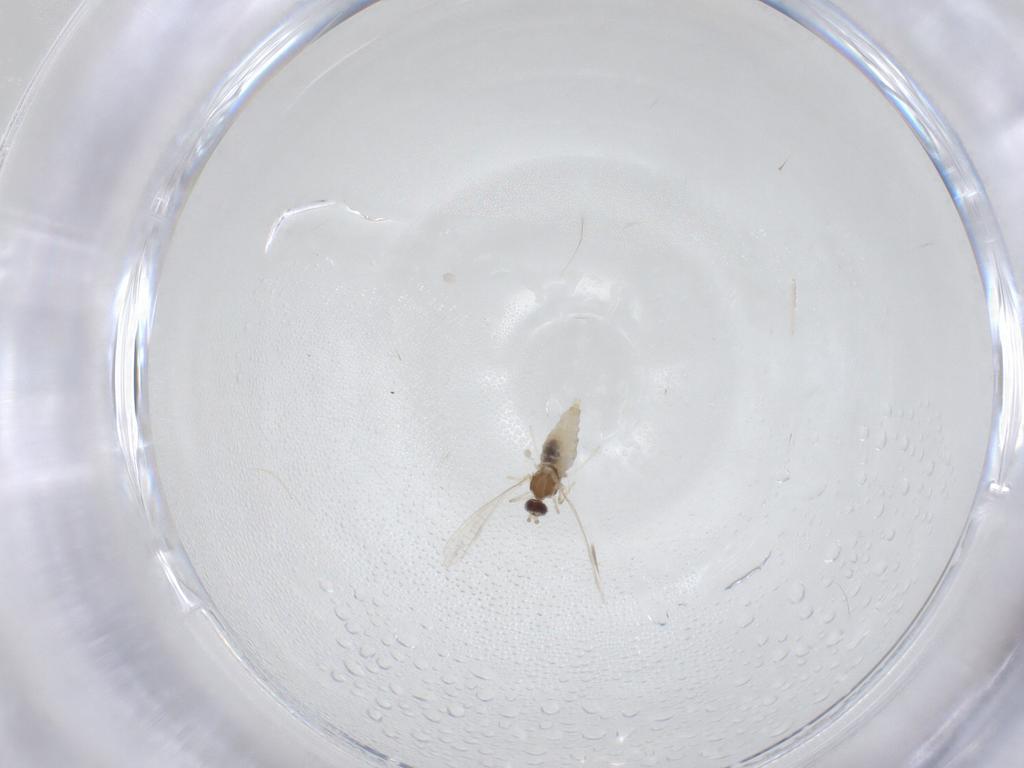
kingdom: Animalia
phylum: Arthropoda
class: Insecta
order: Diptera
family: Cecidomyiidae
